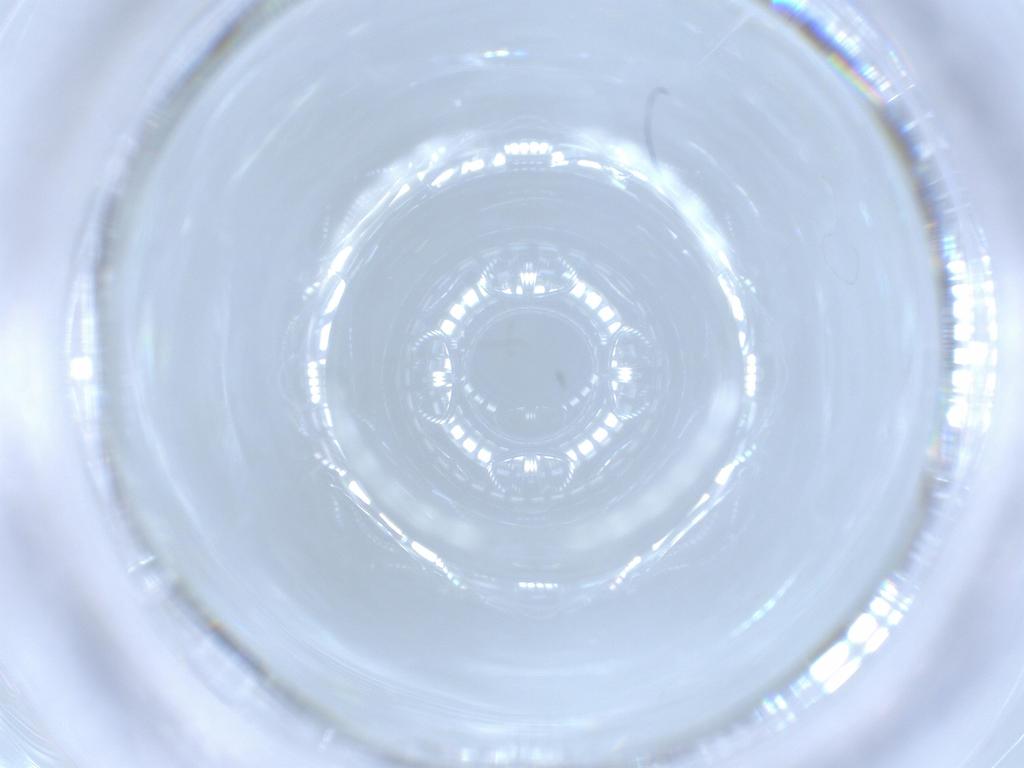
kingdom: Animalia
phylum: Arthropoda
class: Insecta
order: Diptera
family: Cecidomyiidae
